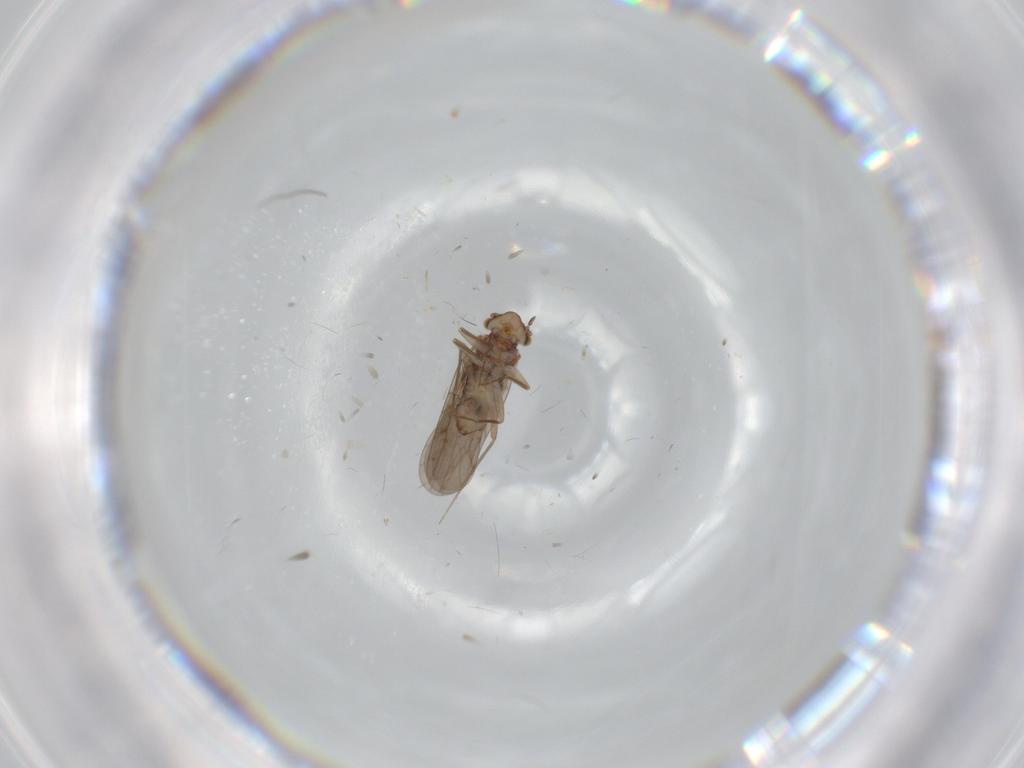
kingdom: Animalia
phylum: Arthropoda
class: Insecta
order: Psocodea
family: Lepidopsocidae
